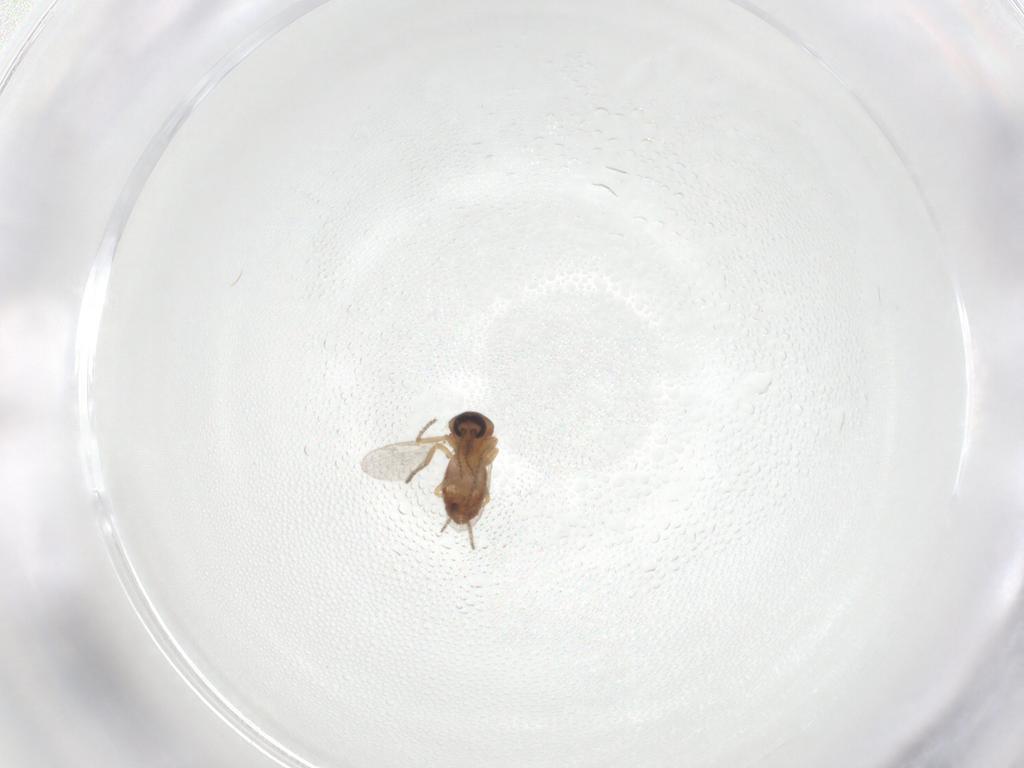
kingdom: Animalia
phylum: Arthropoda
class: Insecta
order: Diptera
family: Ceratopogonidae
